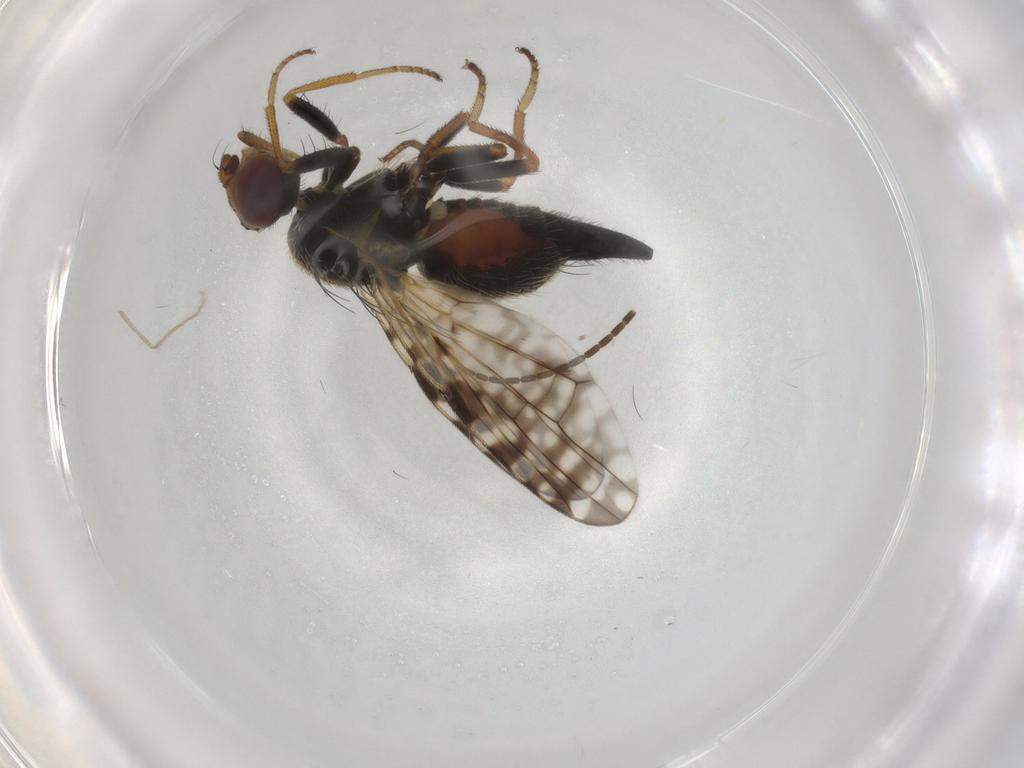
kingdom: Animalia
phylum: Arthropoda
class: Insecta
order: Diptera
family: Tephritidae
